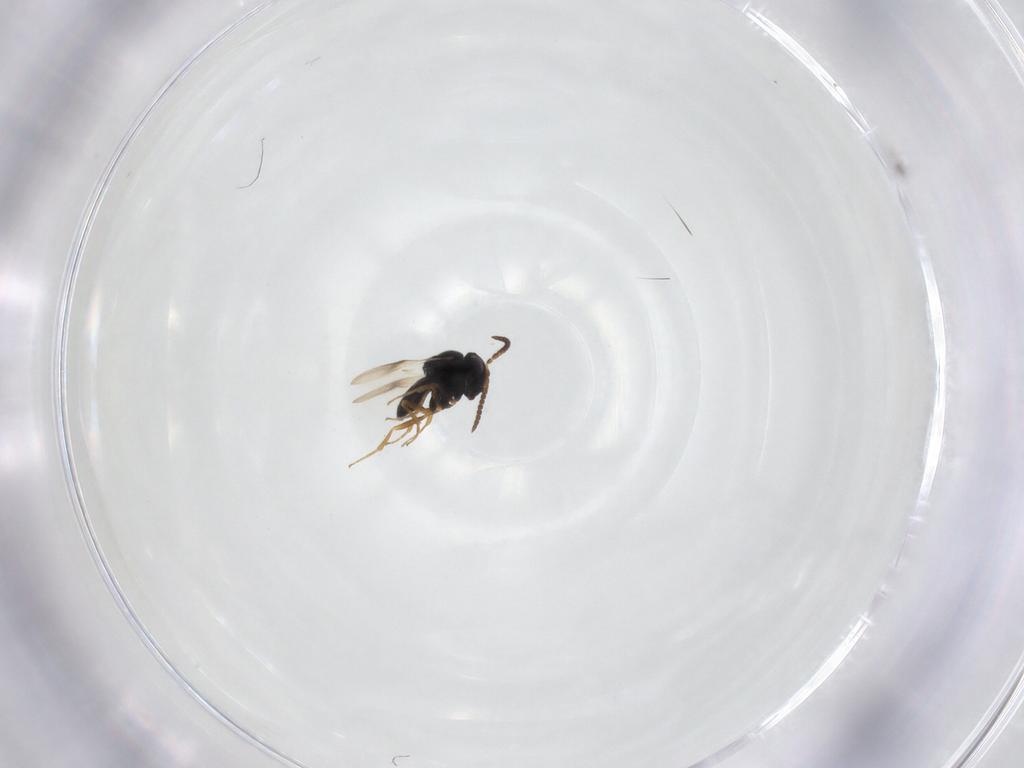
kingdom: Animalia
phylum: Arthropoda
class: Insecta
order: Hymenoptera
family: Scelionidae
